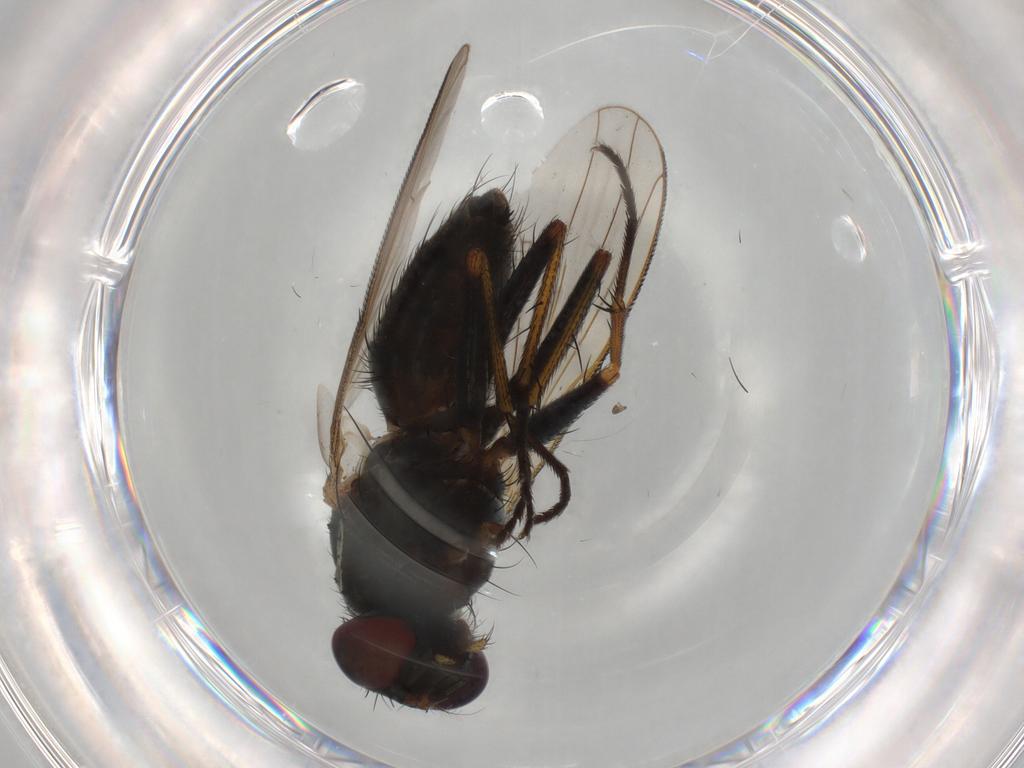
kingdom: Animalia
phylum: Arthropoda
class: Insecta
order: Diptera
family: Muscidae
